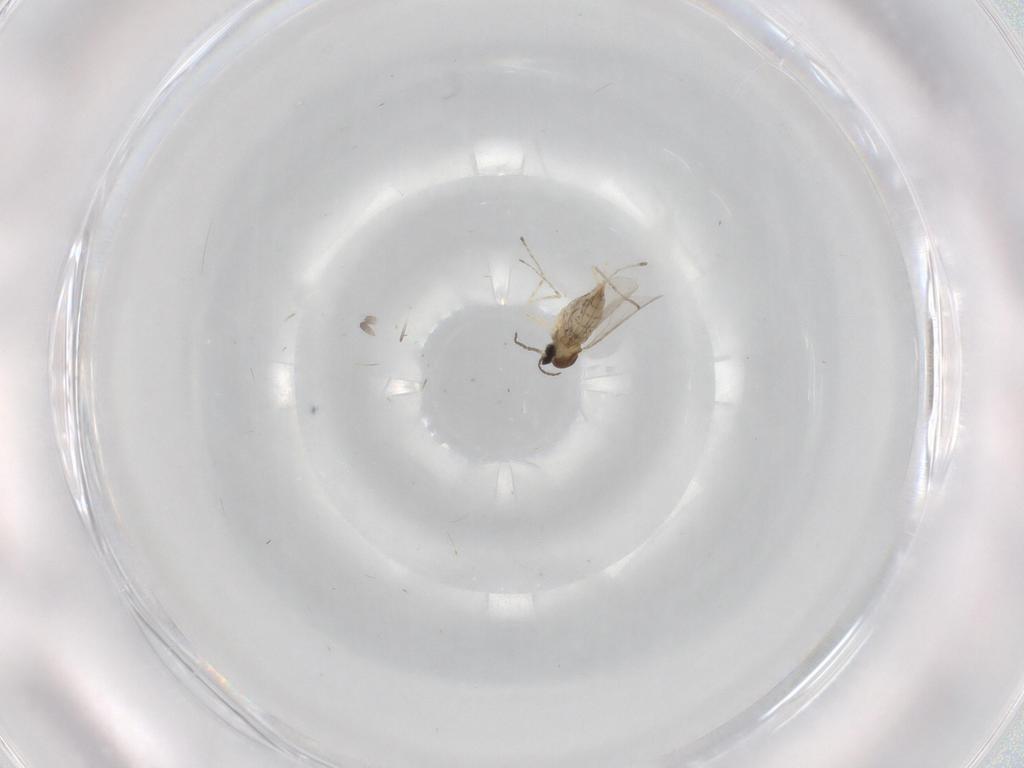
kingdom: Animalia
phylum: Arthropoda
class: Insecta
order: Diptera
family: Cecidomyiidae
